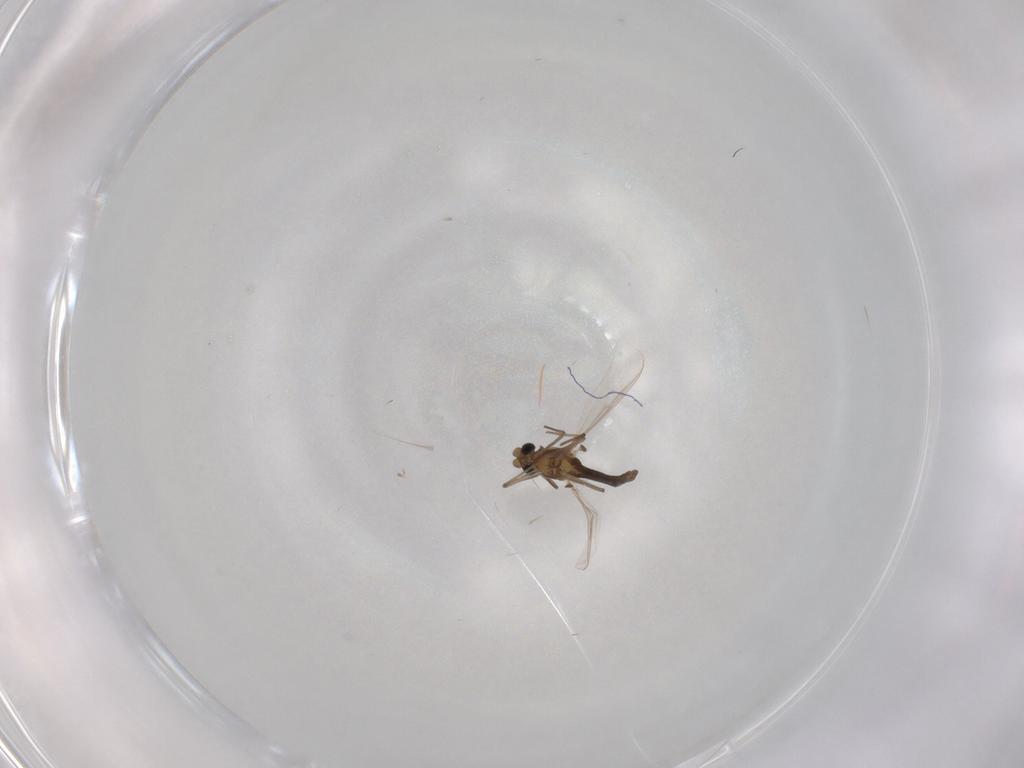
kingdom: Animalia
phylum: Arthropoda
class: Insecta
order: Diptera
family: Chironomidae
